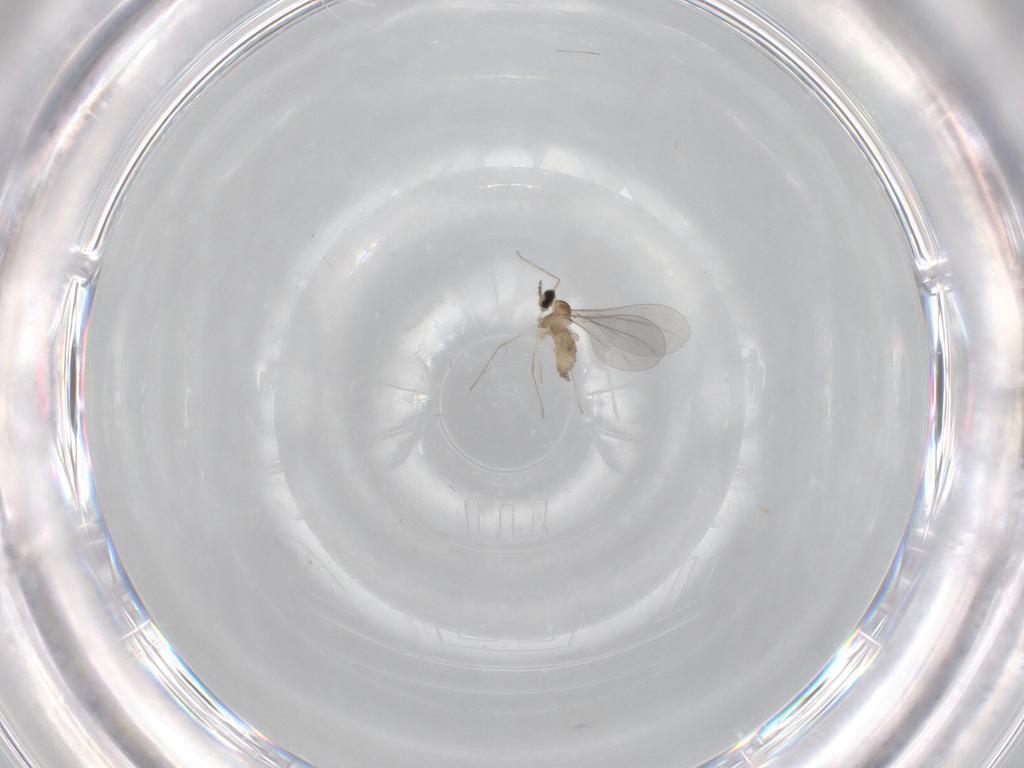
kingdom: Animalia
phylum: Arthropoda
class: Insecta
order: Diptera
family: Cecidomyiidae
